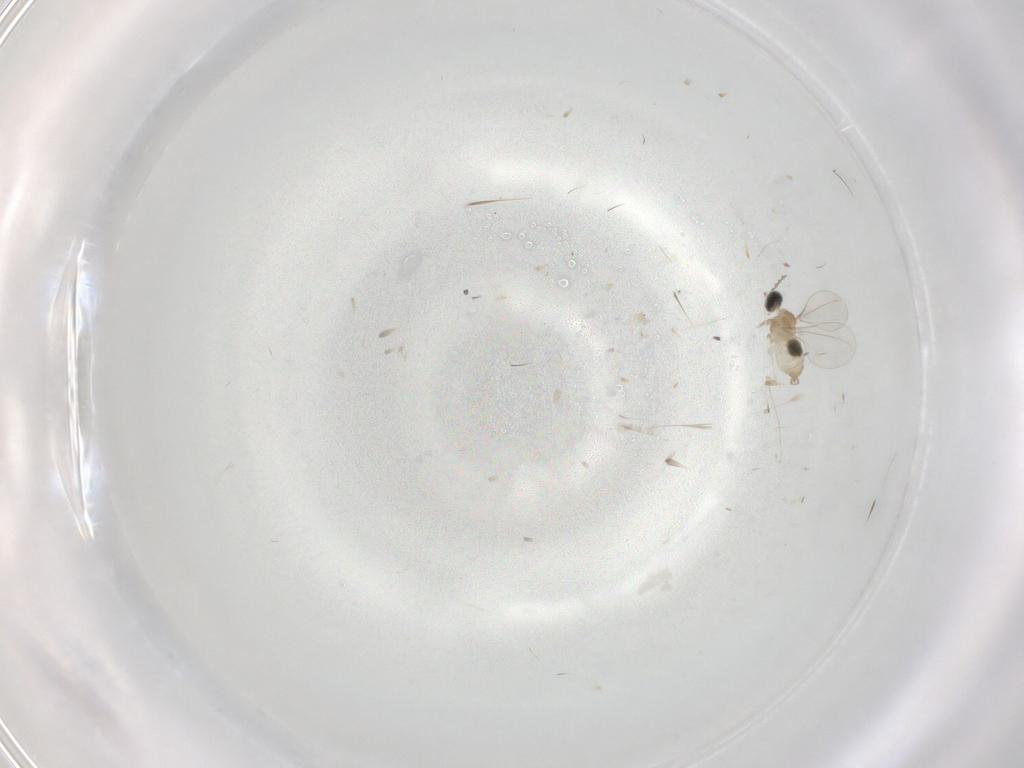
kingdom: Animalia
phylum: Arthropoda
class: Insecta
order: Diptera
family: Culicidae
